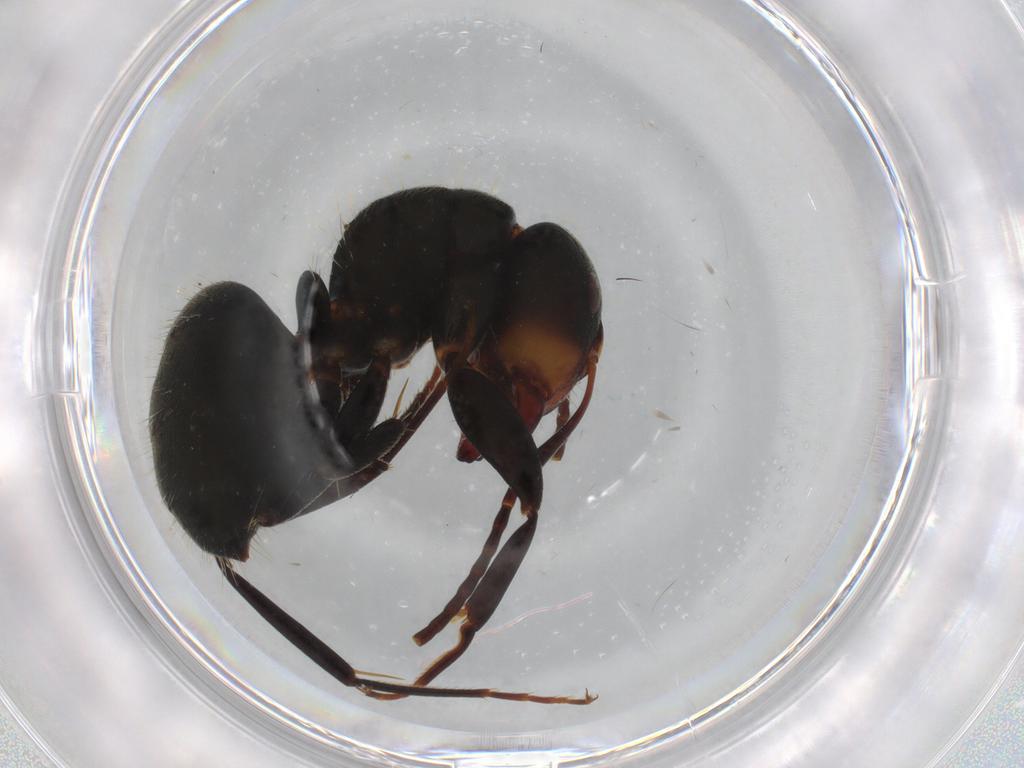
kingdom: Animalia
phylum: Arthropoda
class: Insecta
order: Hymenoptera
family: Formicidae
